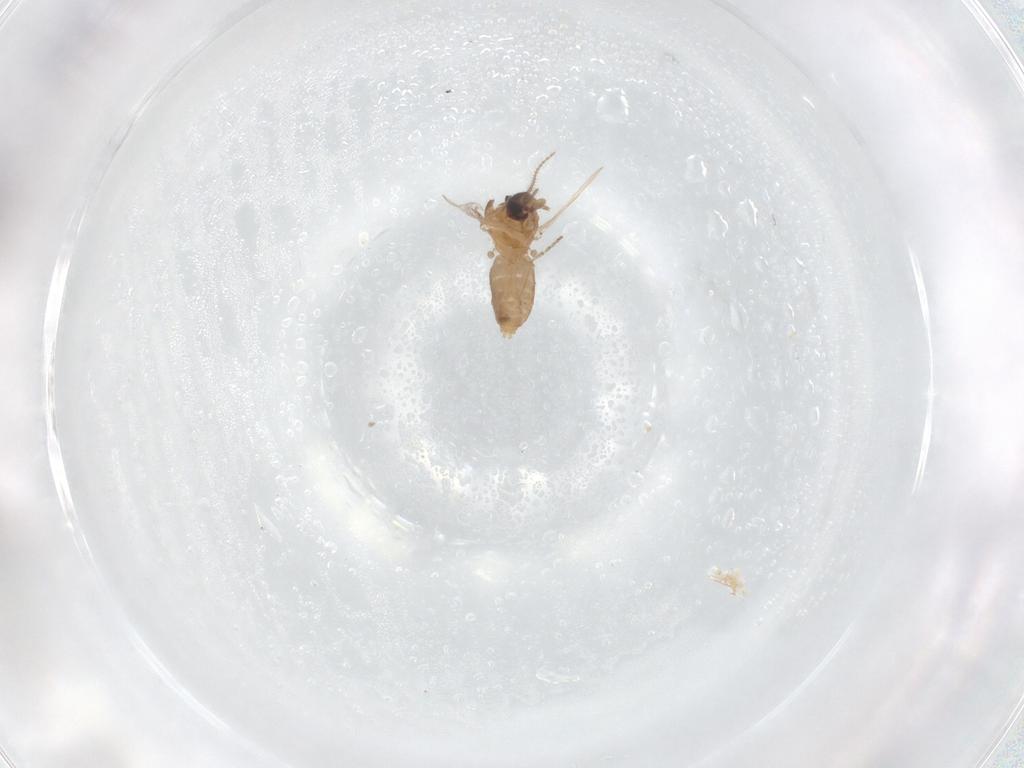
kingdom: Animalia
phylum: Arthropoda
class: Insecta
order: Diptera
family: Ceratopogonidae
